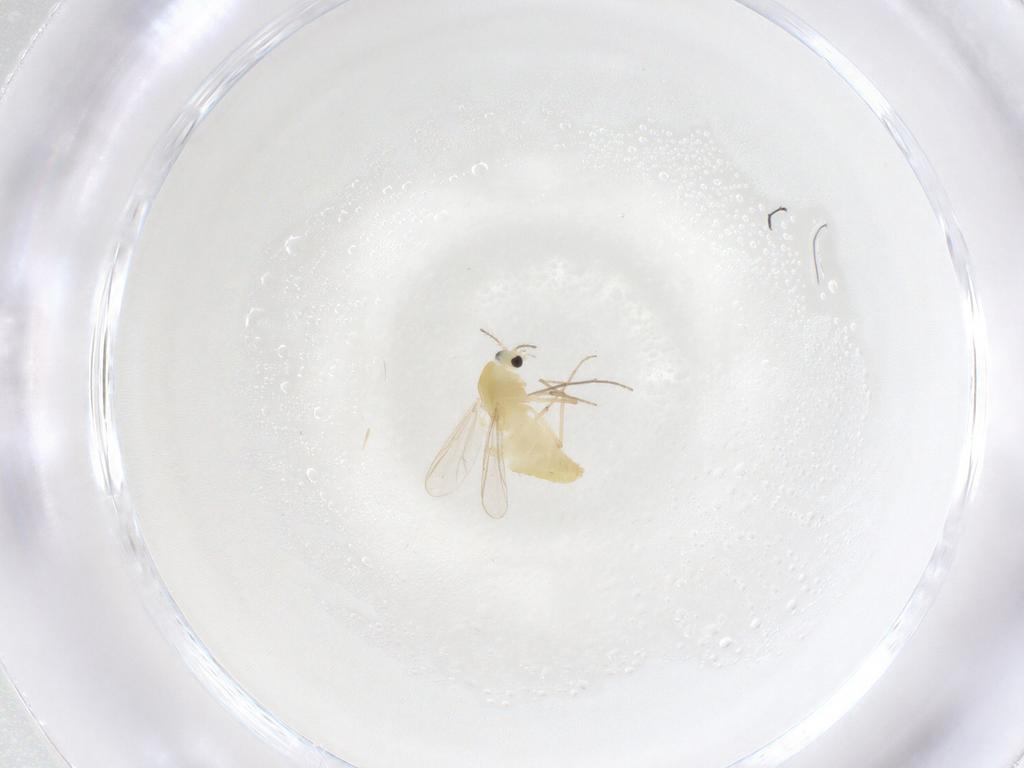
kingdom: Animalia
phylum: Arthropoda
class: Insecta
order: Diptera
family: Chironomidae
